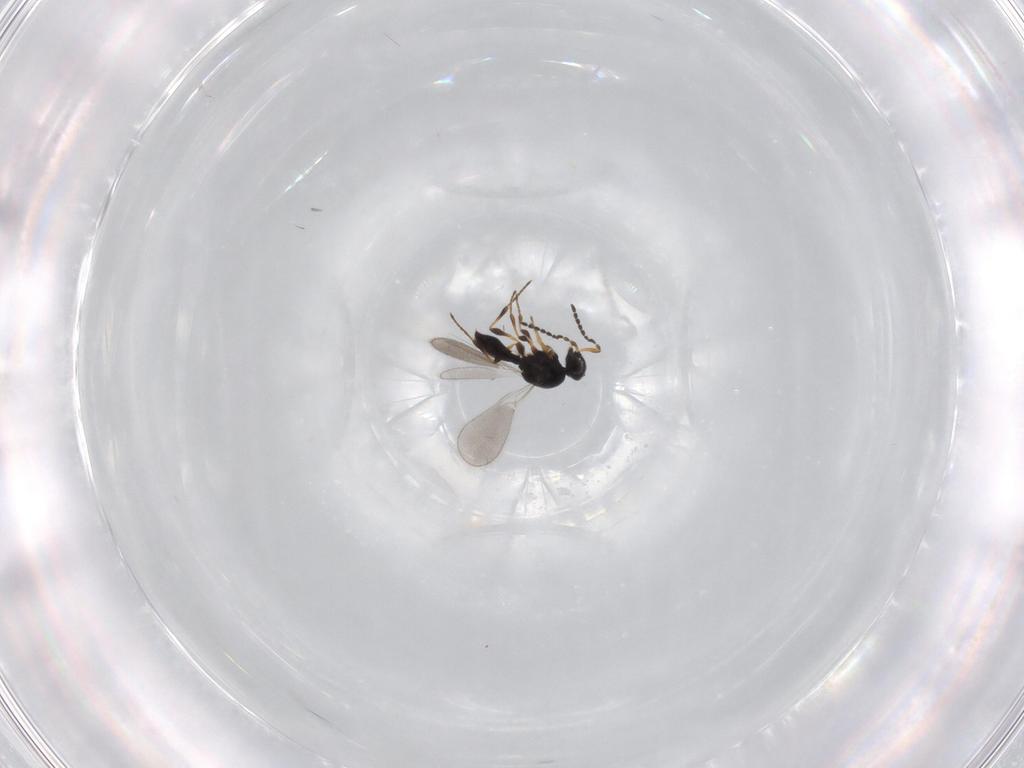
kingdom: Animalia
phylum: Arthropoda
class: Insecta
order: Hymenoptera
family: Platygastridae
